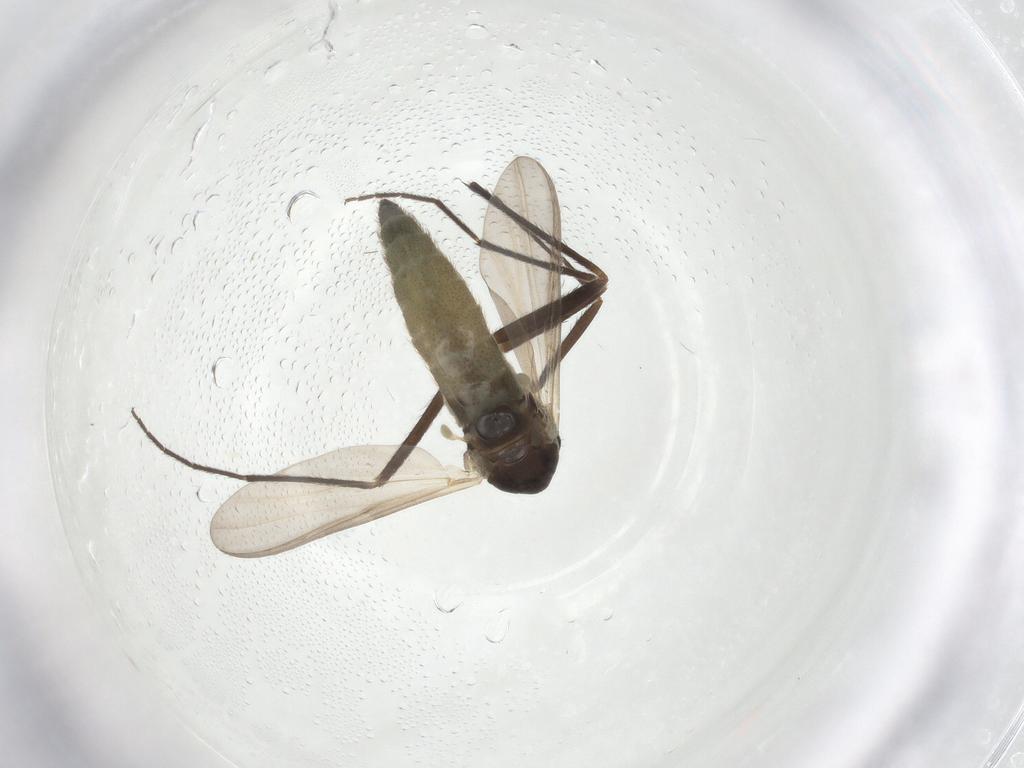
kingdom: Animalia
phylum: Arthropoda
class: Insecta
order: Diptera
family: Chironomidae
